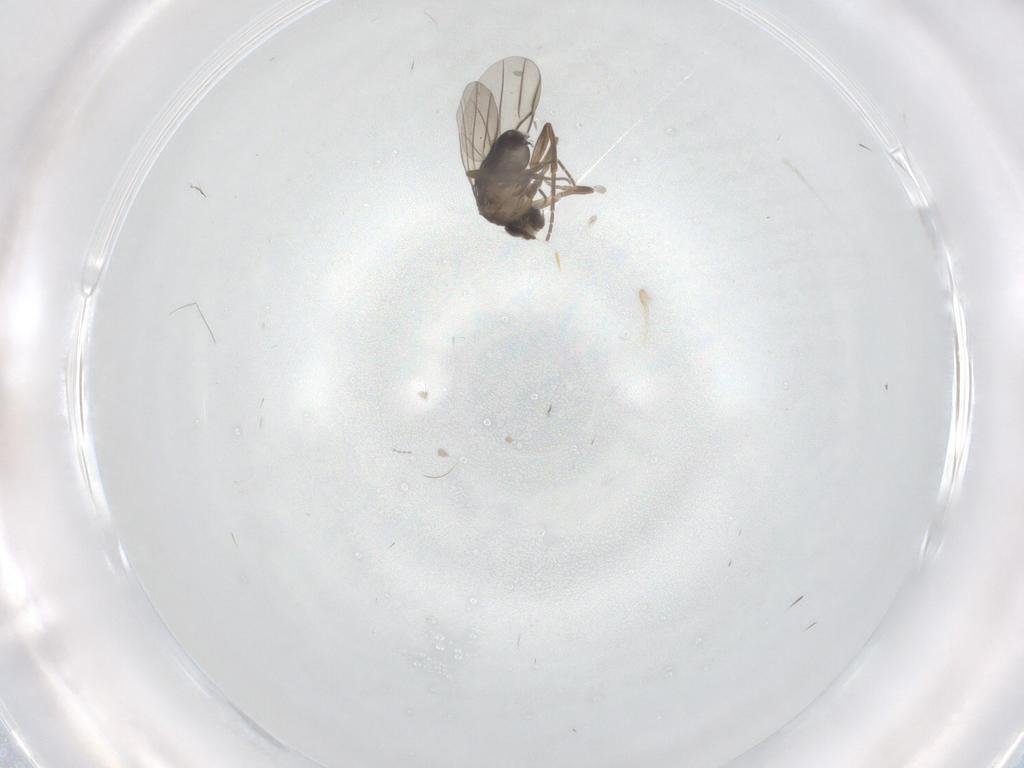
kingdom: Animalia
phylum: Arthropoda
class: Insecta
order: Diptera
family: Phoridae
